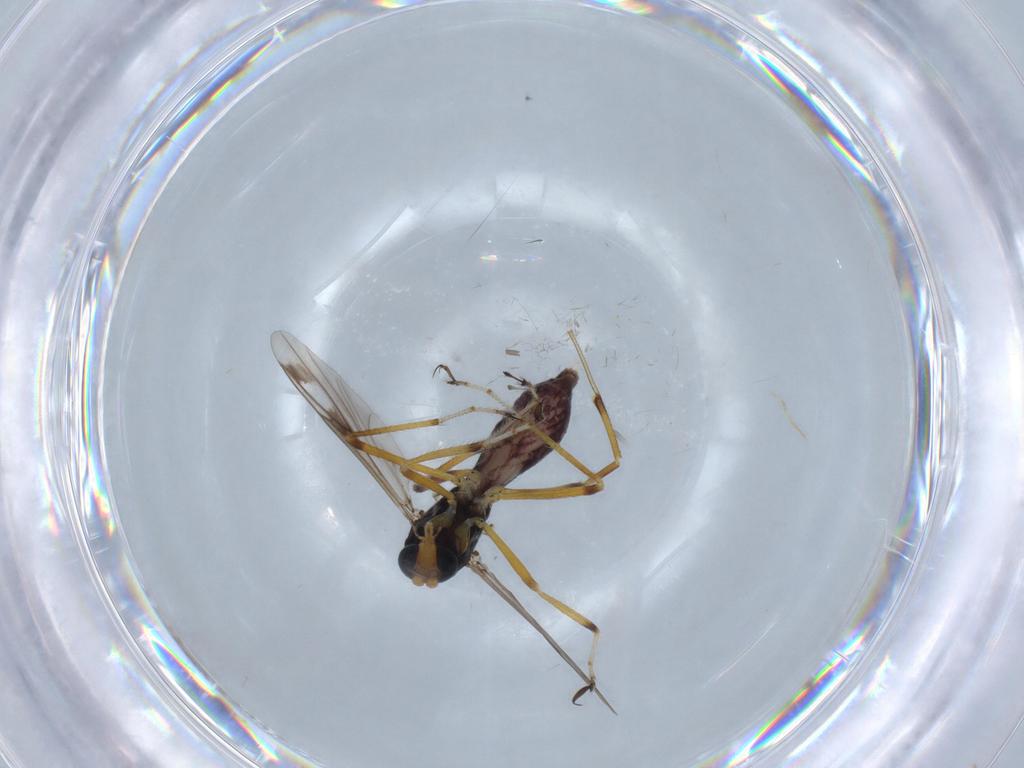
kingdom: Animalia
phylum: Arthropoda
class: Insecta
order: Diptera
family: Ceratopogonidae
